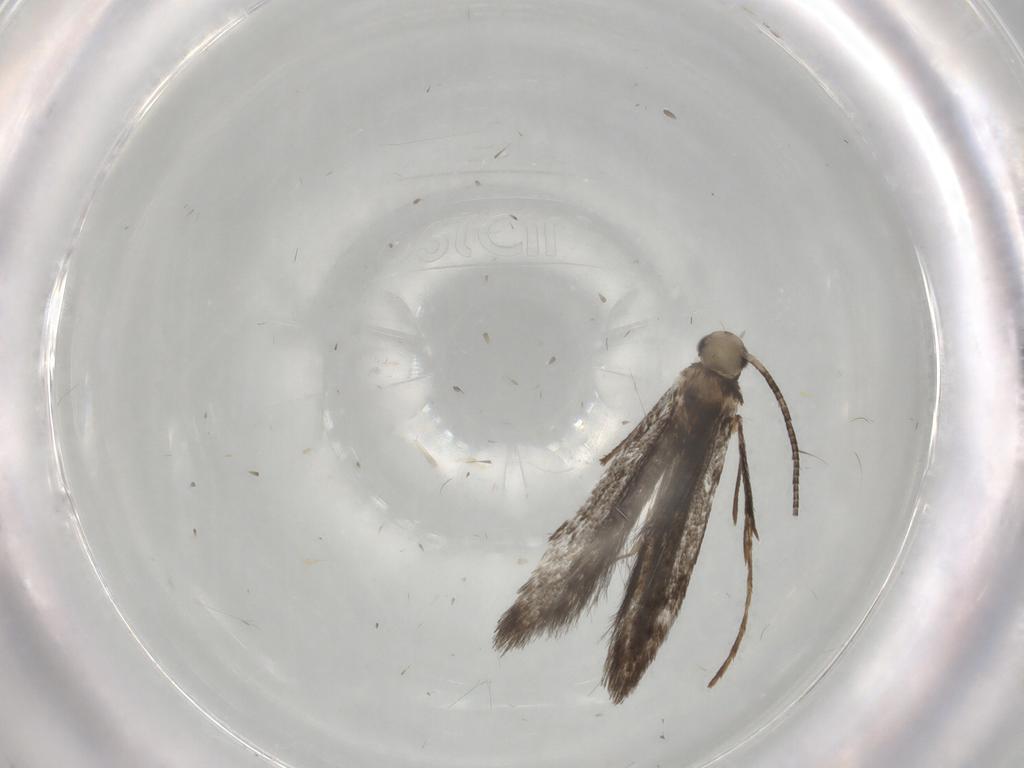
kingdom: Animalia
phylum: Arthropoda
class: Insecta
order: Lepidoptera
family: Gracillariidae
